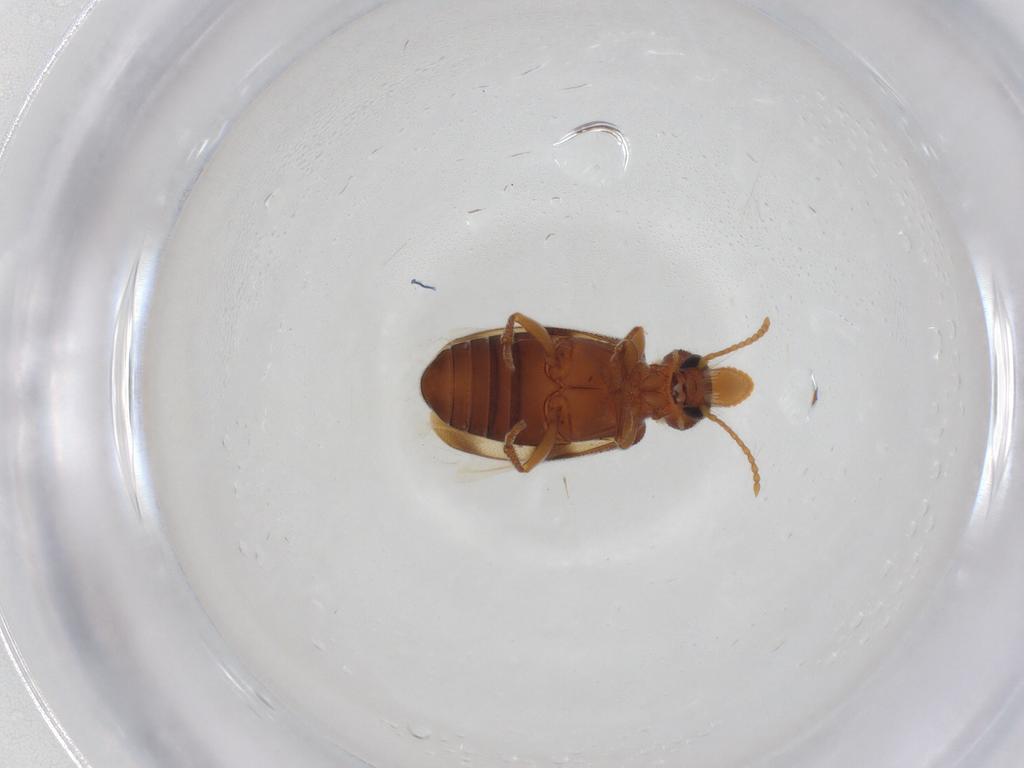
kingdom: Animalia
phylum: Arthropoda
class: Insecta
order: Coleoptera
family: Anthicidae
